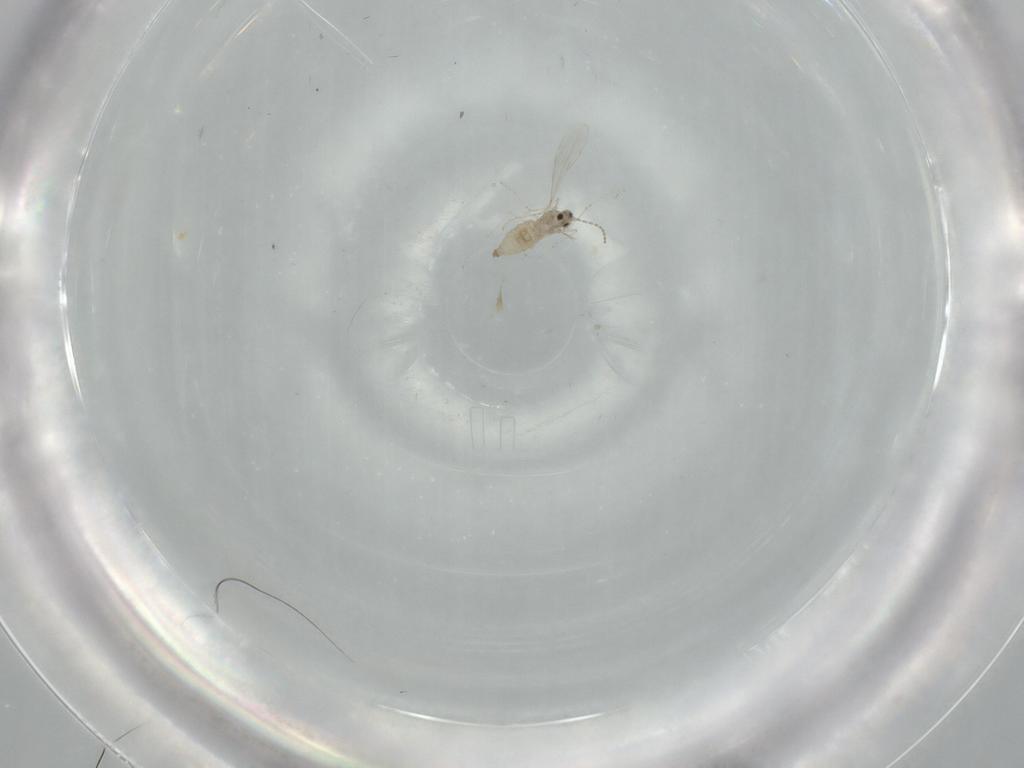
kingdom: Animalia
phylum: Arthropoda
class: Insecta
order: Diptera
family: Cecidomyiidae
